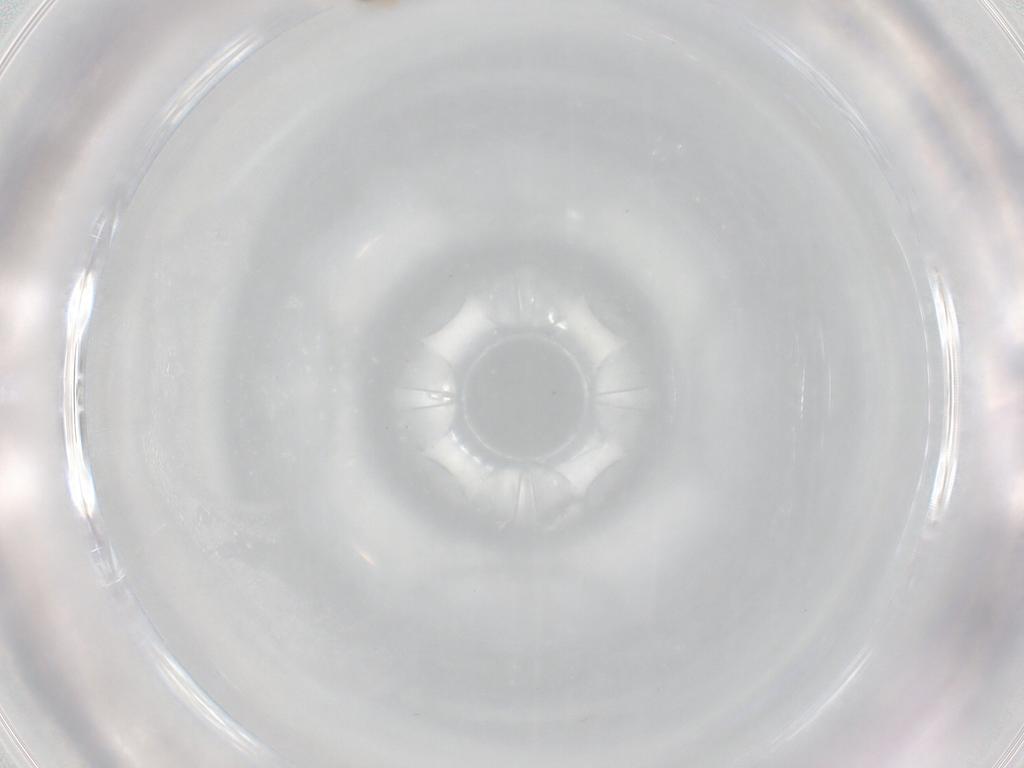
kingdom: Animalia
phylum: Arthropoda
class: Insecta
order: Diptera
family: Cecidomyiidae
